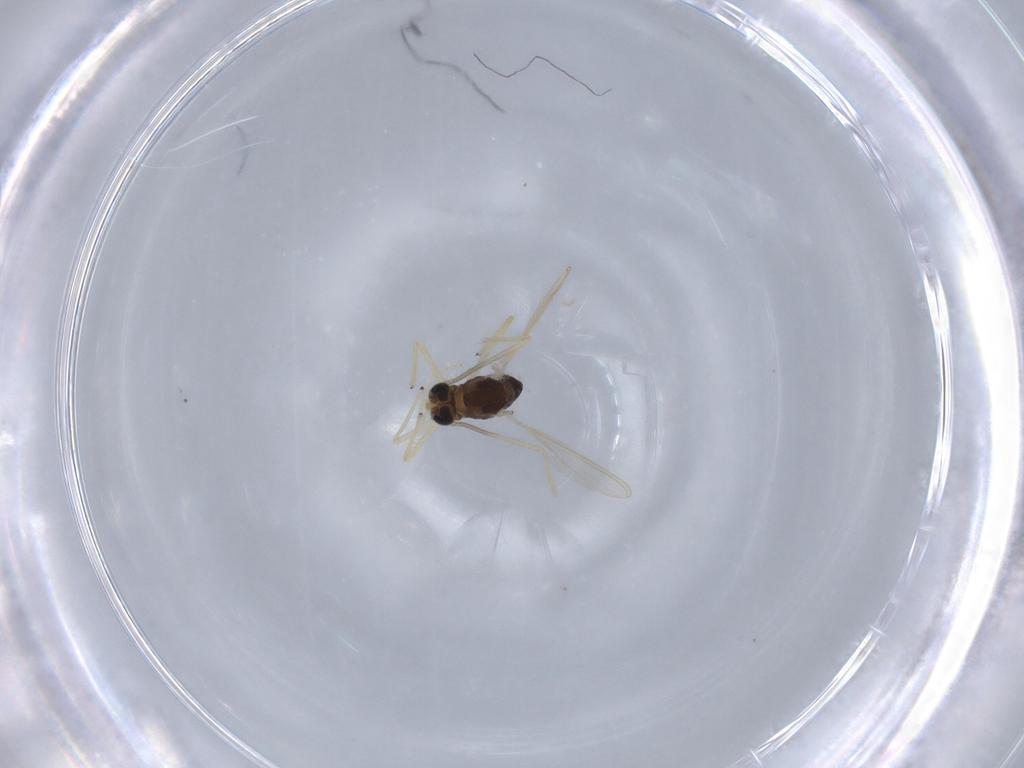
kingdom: Animalia
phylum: Arthropoda
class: Insecta
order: Diptera
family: Chironomidae
